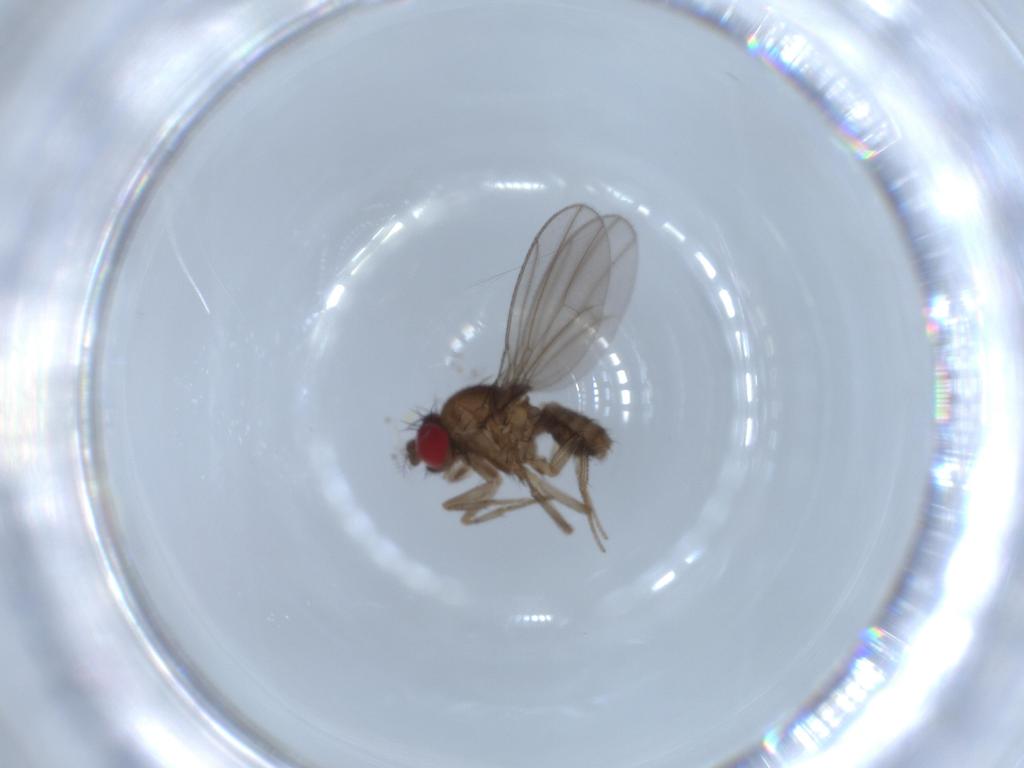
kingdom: Animalia
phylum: Arthropoda
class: Insecta
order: Diptera
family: Drosophilidae
